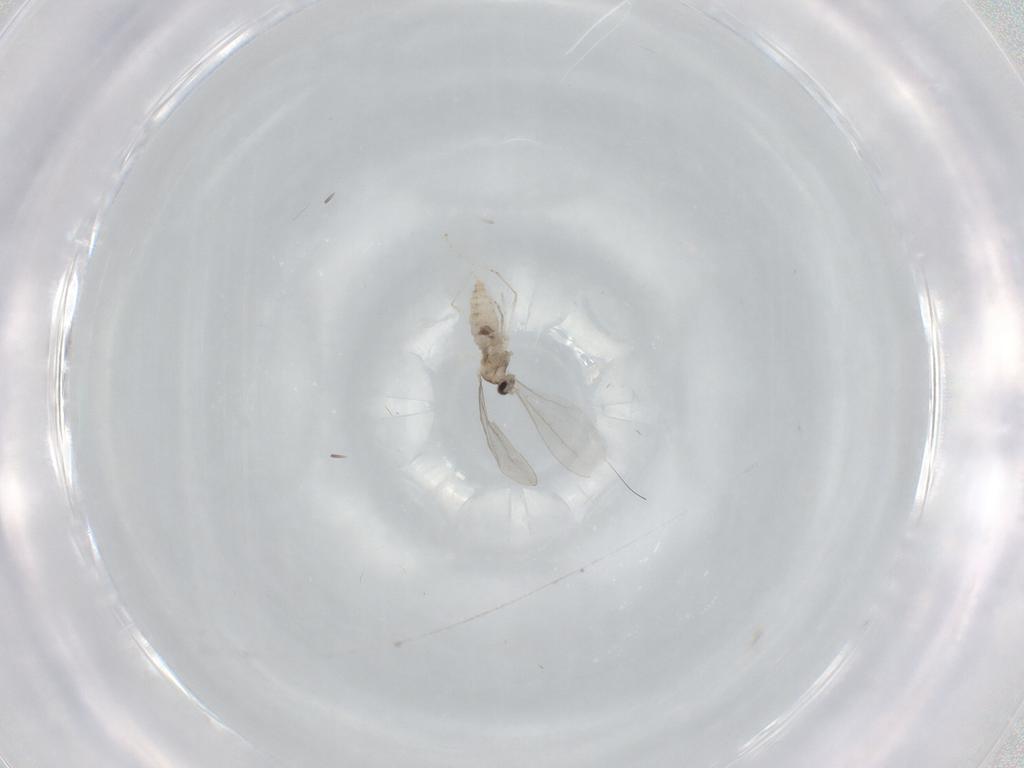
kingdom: Animalia
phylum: Arthropoda
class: Insecta
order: Diptera
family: Cecidomyiidae
